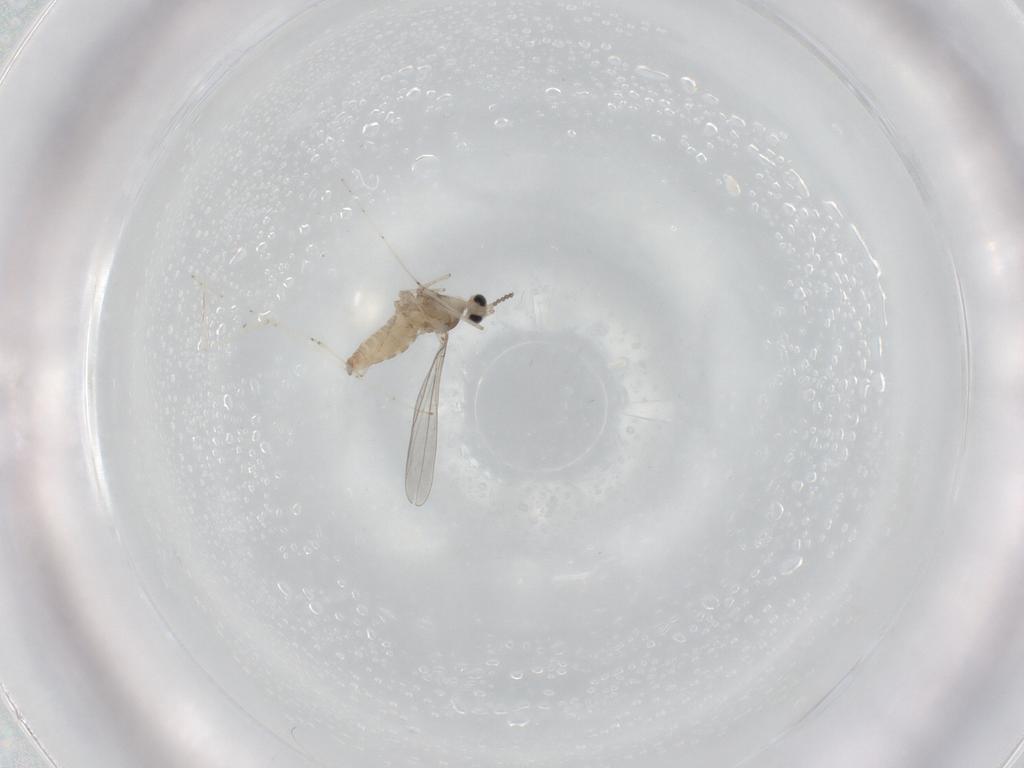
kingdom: Animalia
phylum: Arthropoda
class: Insecta
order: Diptera
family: Cecidomyiidae
